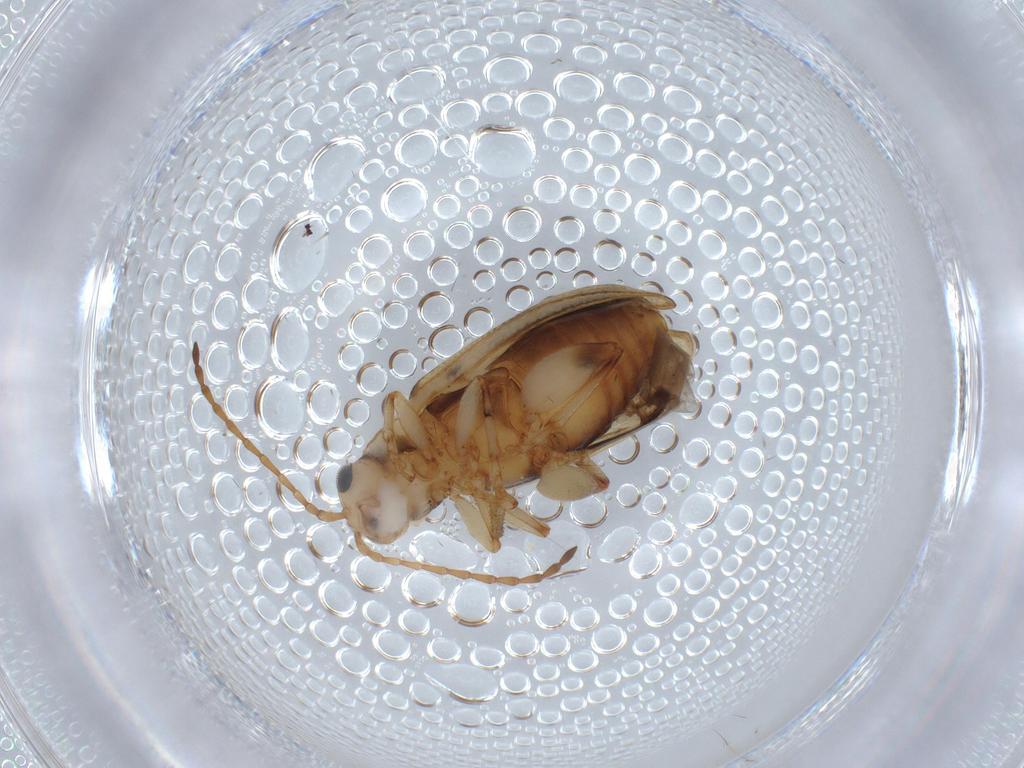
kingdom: Animalia
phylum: Arthropoda
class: Insecta
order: Coleoptera
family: Chrysomelidae
